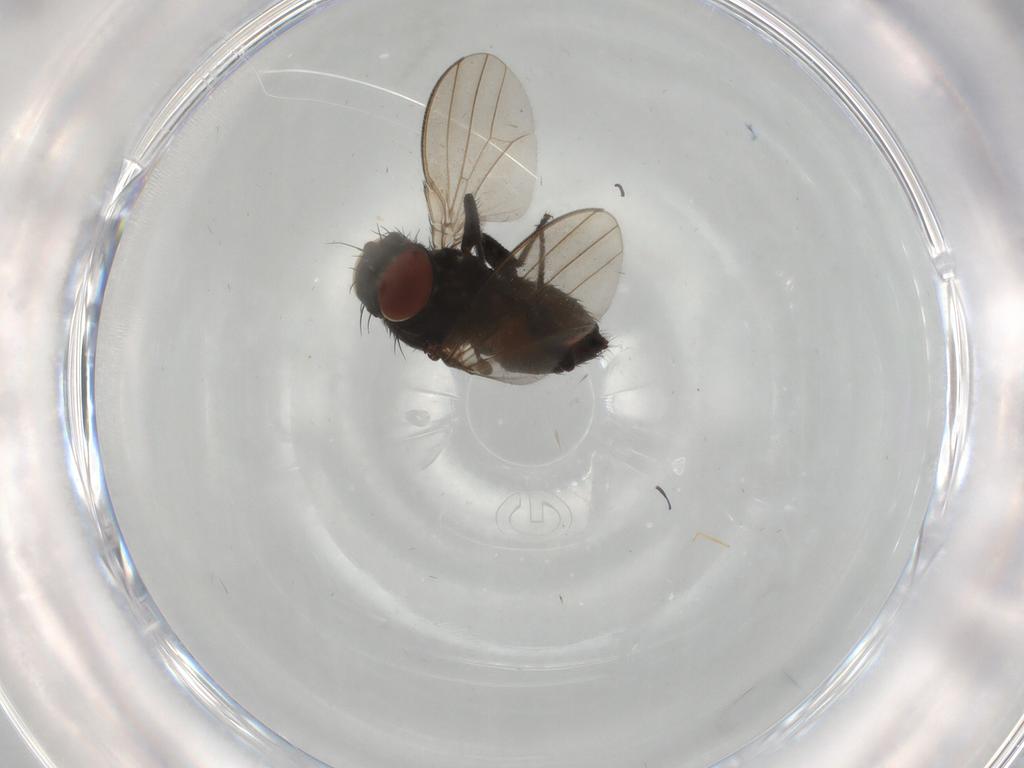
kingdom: Animalia
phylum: Arthropoda
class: Insecta
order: Diptera
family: Milichiidae
